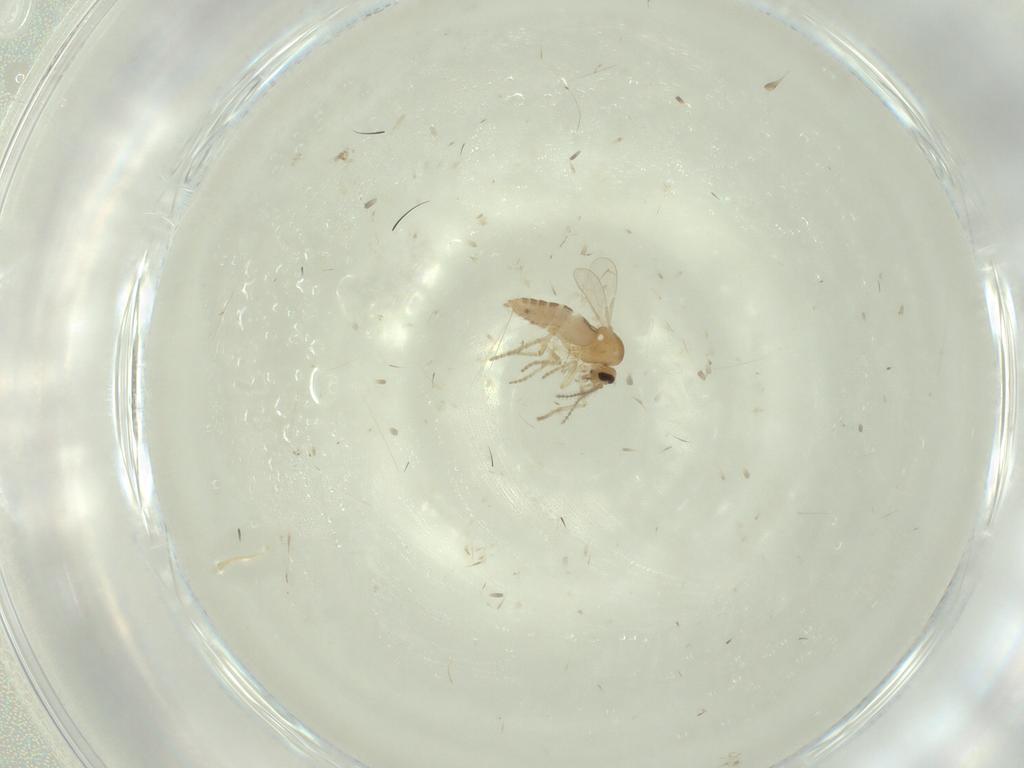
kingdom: Animalia
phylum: Arthropoda
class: Insecta
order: Diptera
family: Ceratopogonidae
